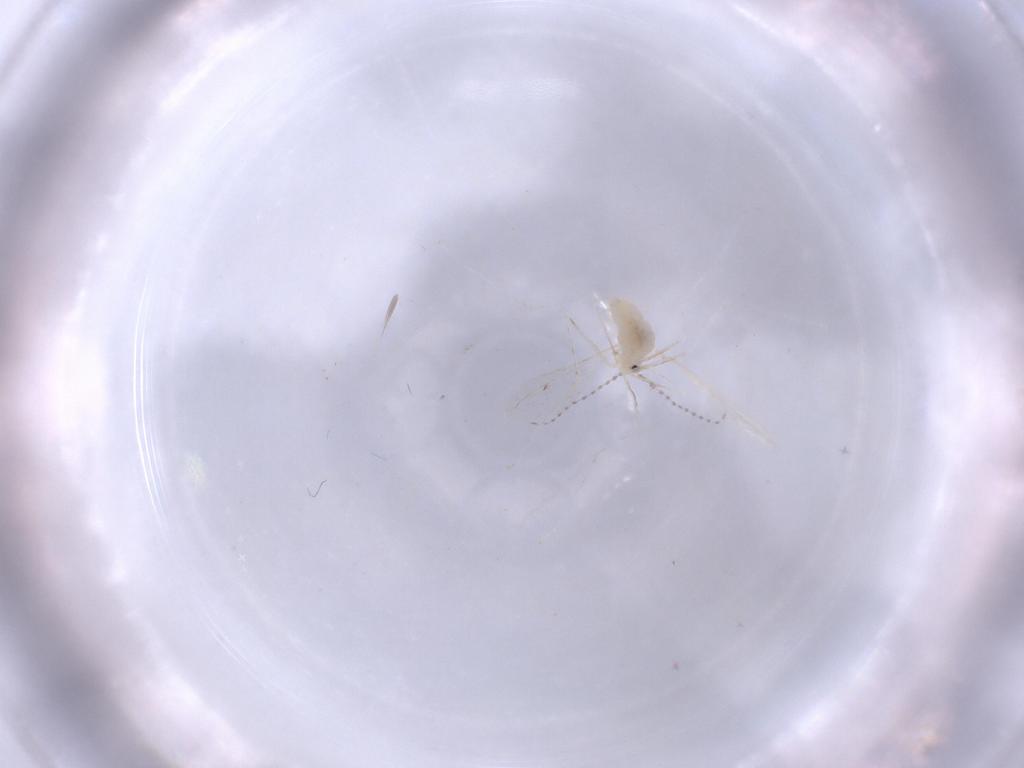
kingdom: Animalia
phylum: Arthropoda
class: Insecta
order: Diptera
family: Cecidomyiidae
